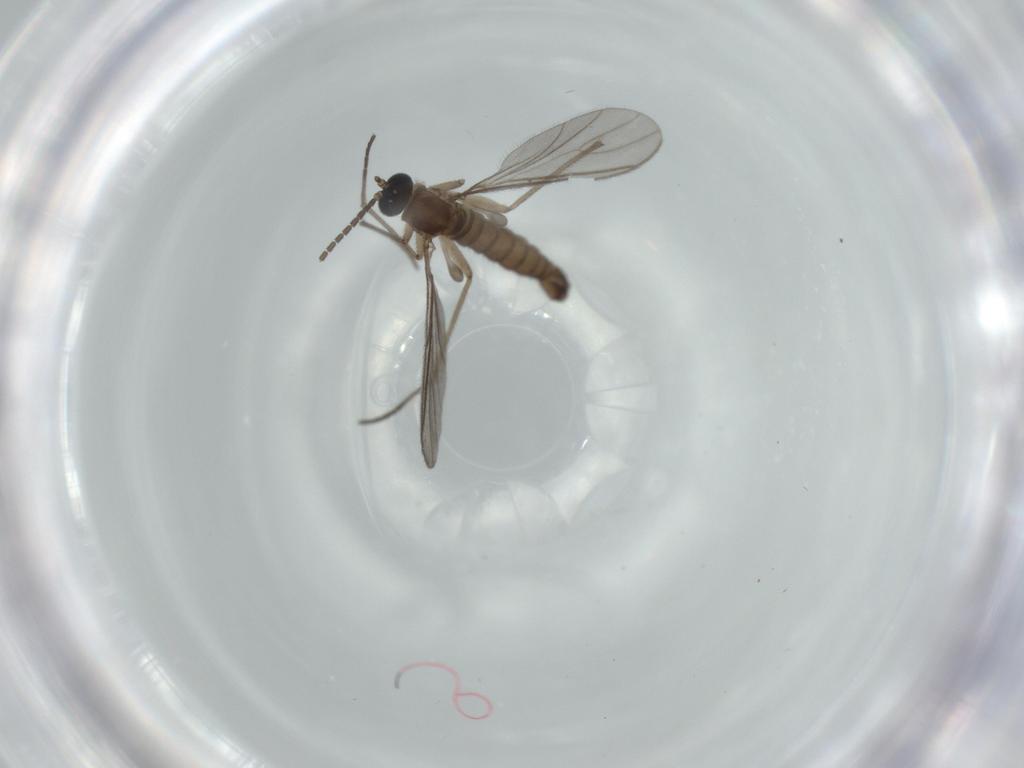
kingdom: Animalia
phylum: Arthropoda
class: Insecta
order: Diptera
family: Sciaridae
